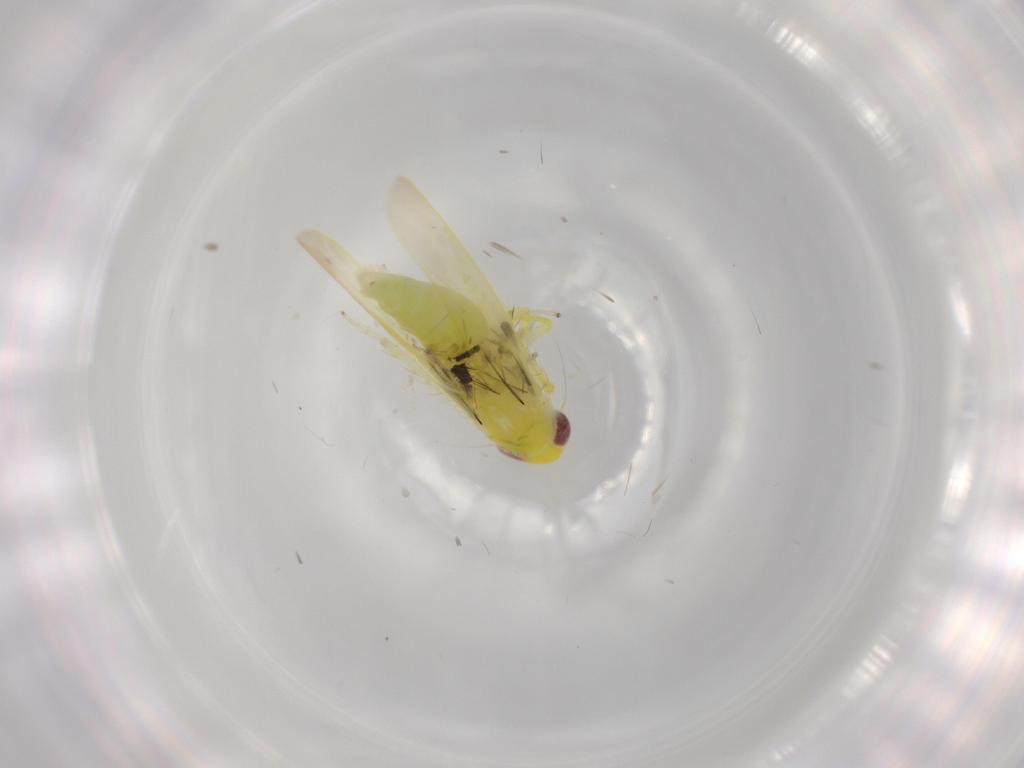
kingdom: Animalia
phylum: Arthropoda
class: Insecta
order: Hemiptera
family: Cicadellidae
